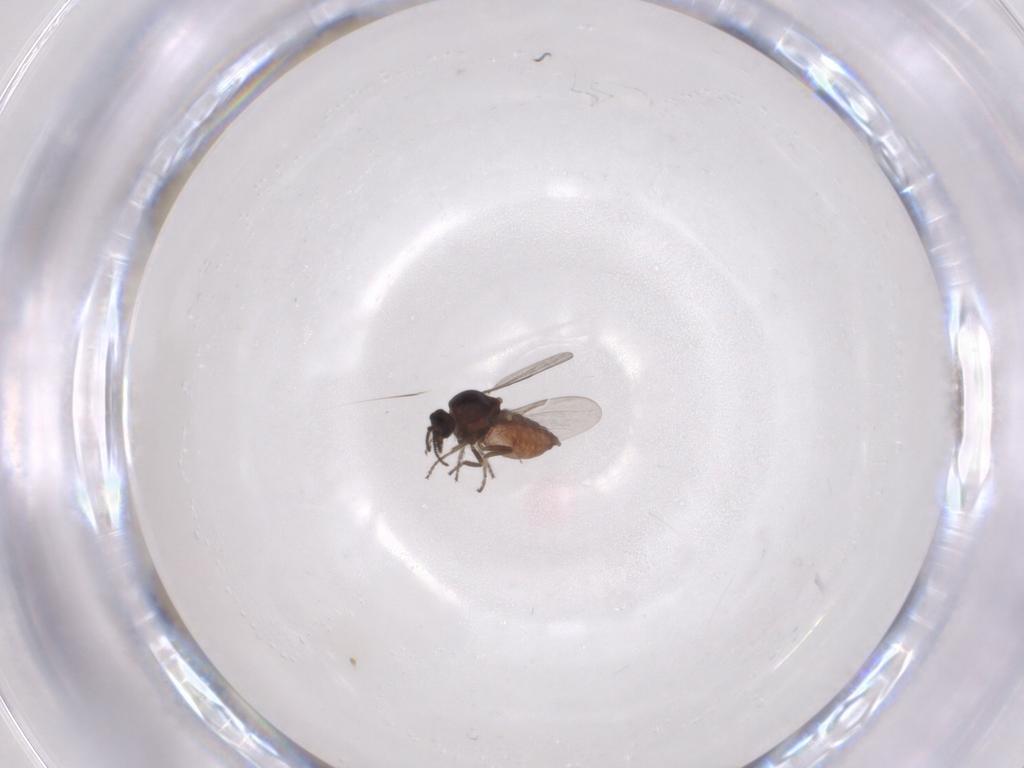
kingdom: Animalia
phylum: Arthropoda
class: Insecta
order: Diptera
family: Ceratopogonidae
